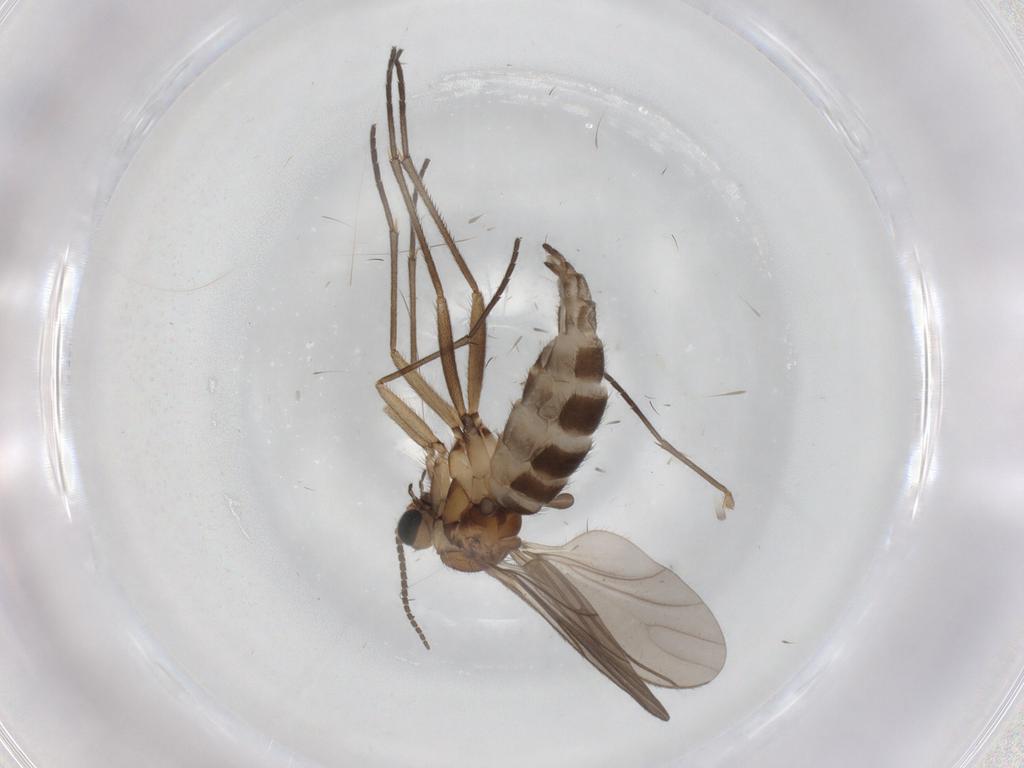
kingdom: Animalia
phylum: Arthropoda
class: Insecta
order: Diptera
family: Sciaridae
